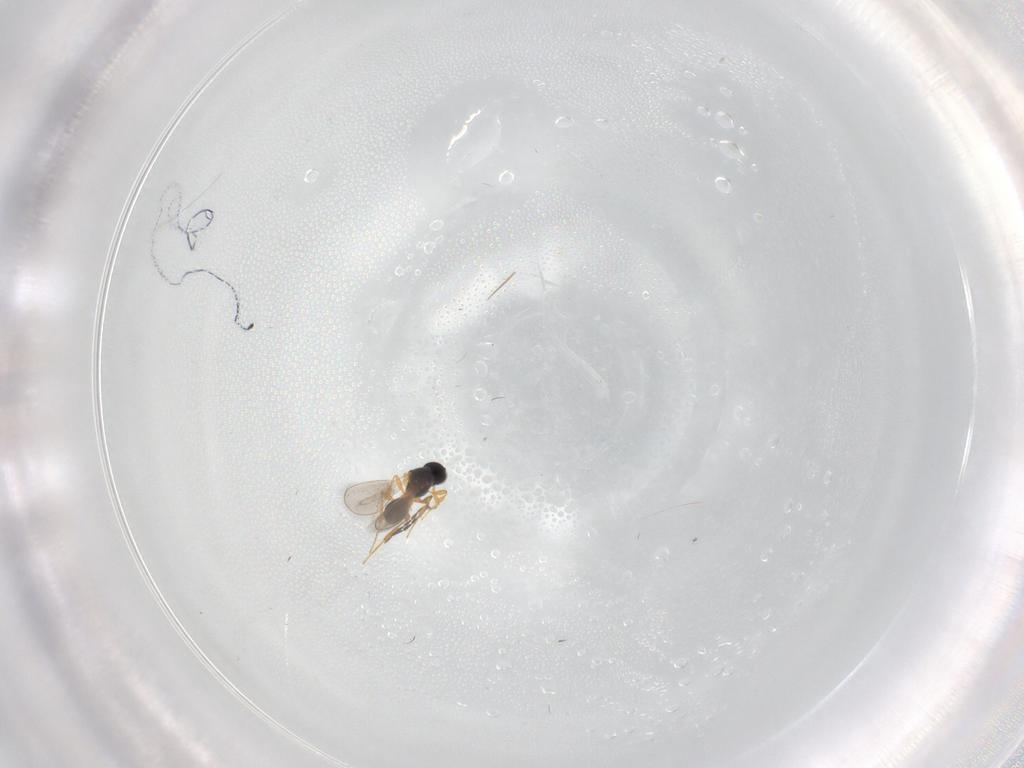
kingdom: Animalia
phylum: Arthropoda
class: Insecta
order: Hymenoptera
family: Platygastridae
